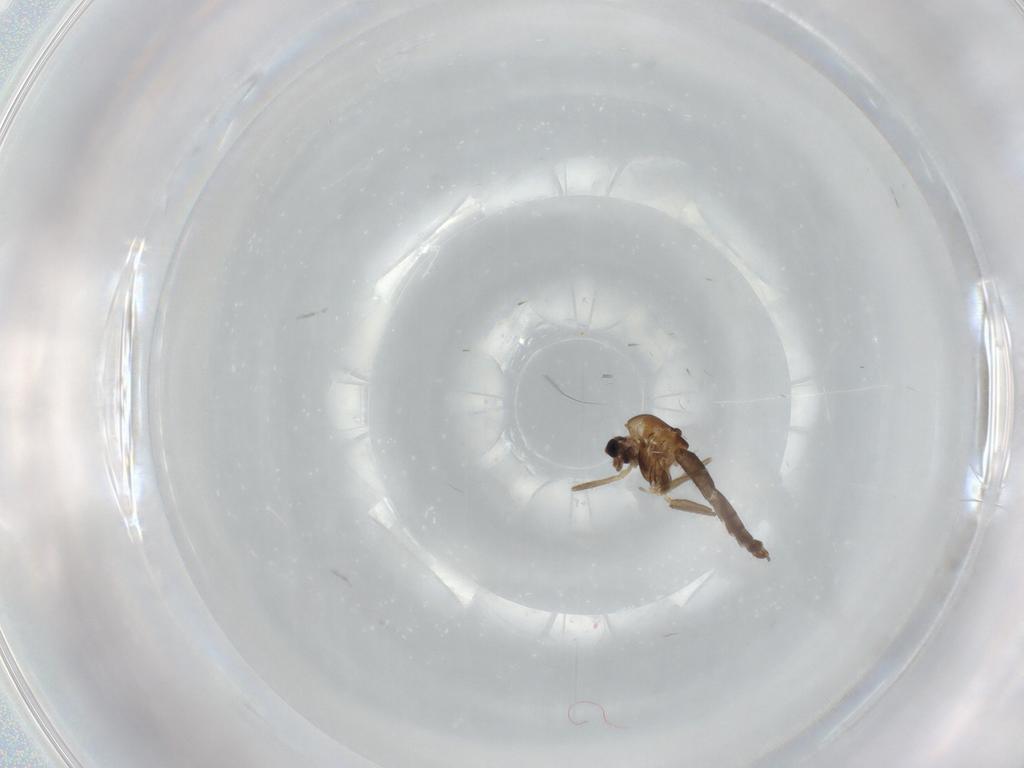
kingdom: Animalia
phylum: Arthropoda
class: Insecta
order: Diptera
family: Chironomidae
